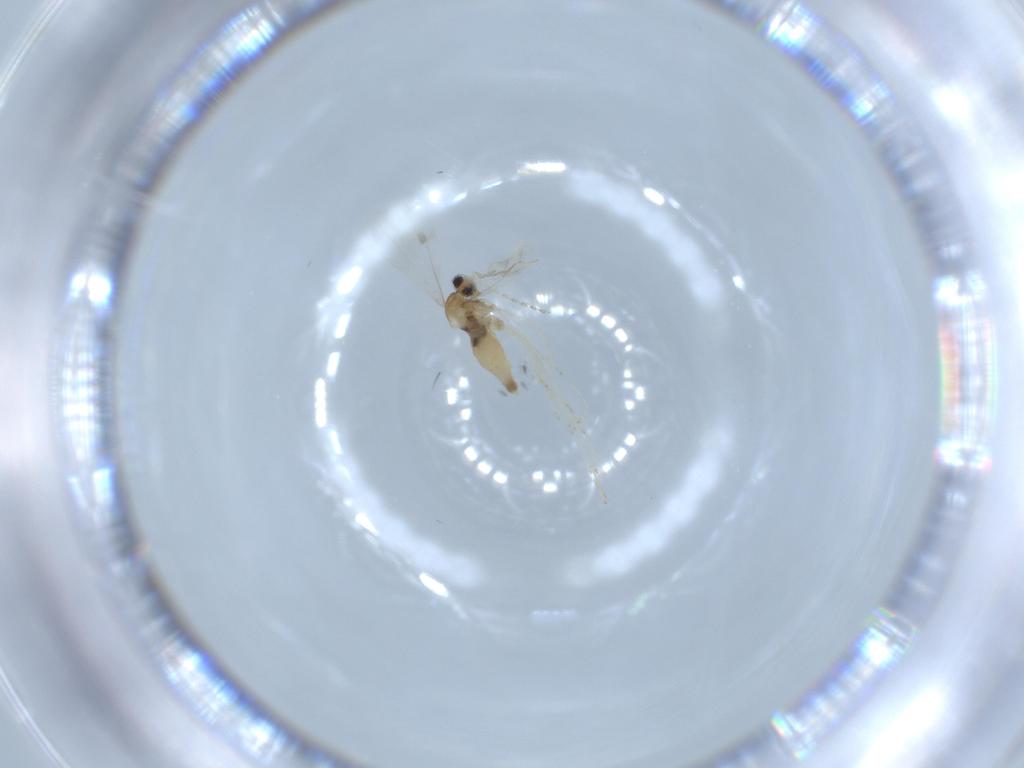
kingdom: Animalia
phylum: Arthropoda
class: Insecta
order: Diptera
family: Cecidomyiidae
